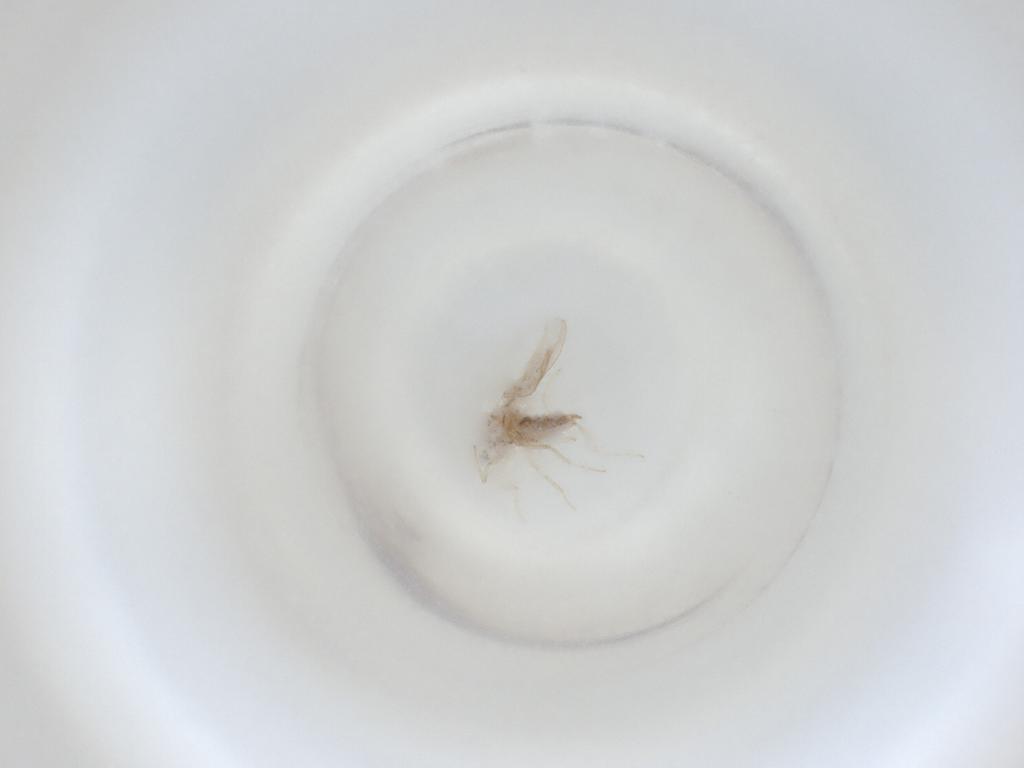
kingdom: Animalia
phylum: Arthropoda
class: Insecta
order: Diptera
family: Cecidomyiidae
